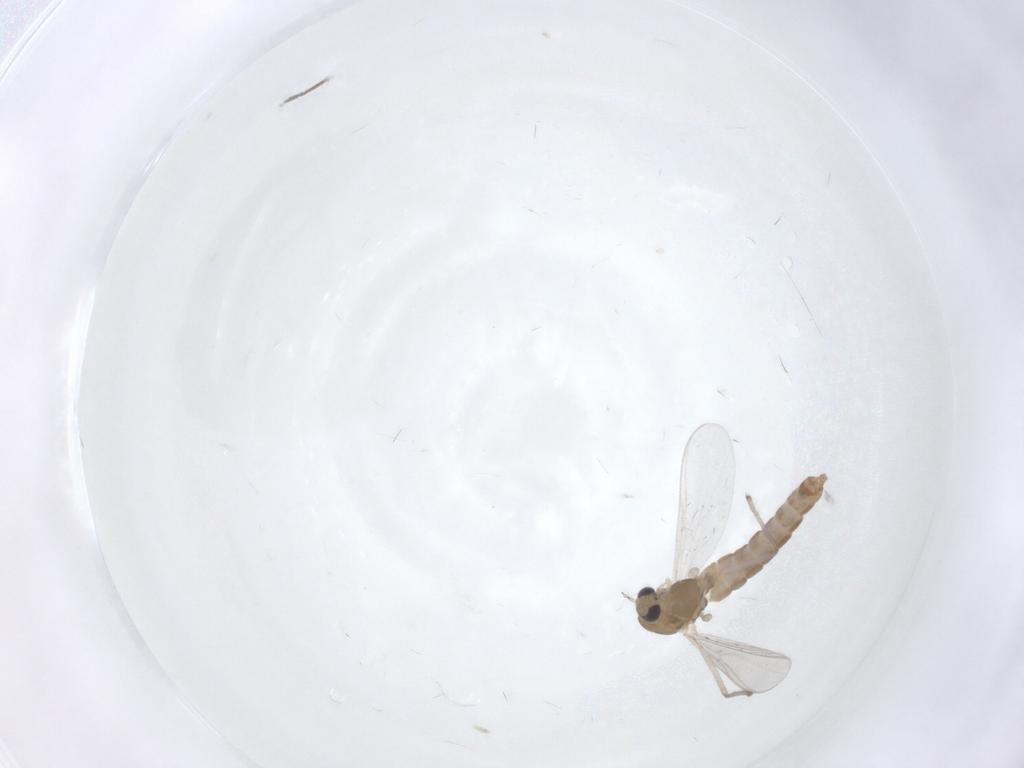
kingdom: Animalia
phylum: Arthropoda
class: Insecta
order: Diptera
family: Chironomidae
